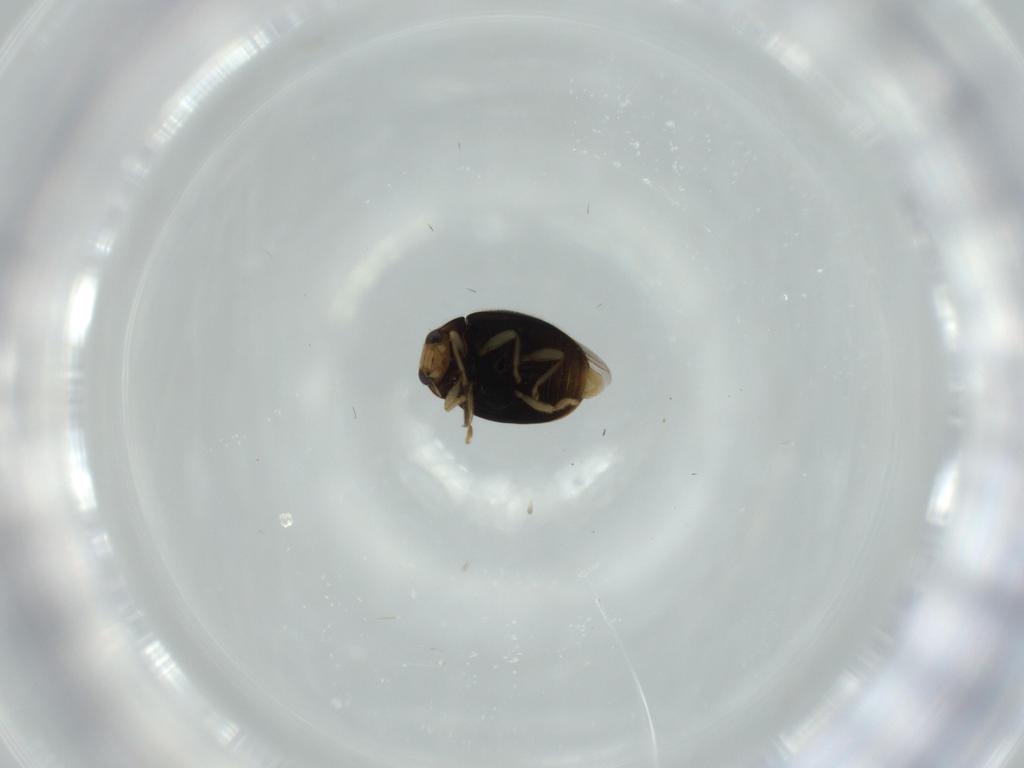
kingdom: Animalia
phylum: Arthropoda
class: Insecta
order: Coleoptera
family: Coccinellidae
